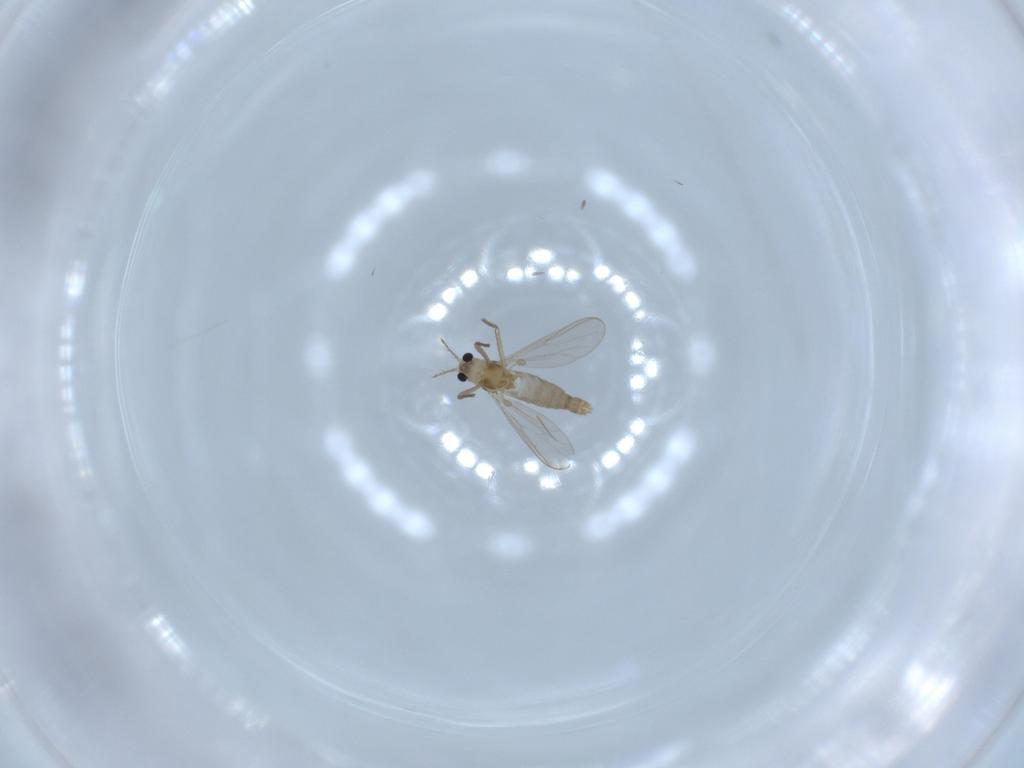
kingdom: Animalia
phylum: Arthropoda
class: Insecta
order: Diptera
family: Chironomidae
